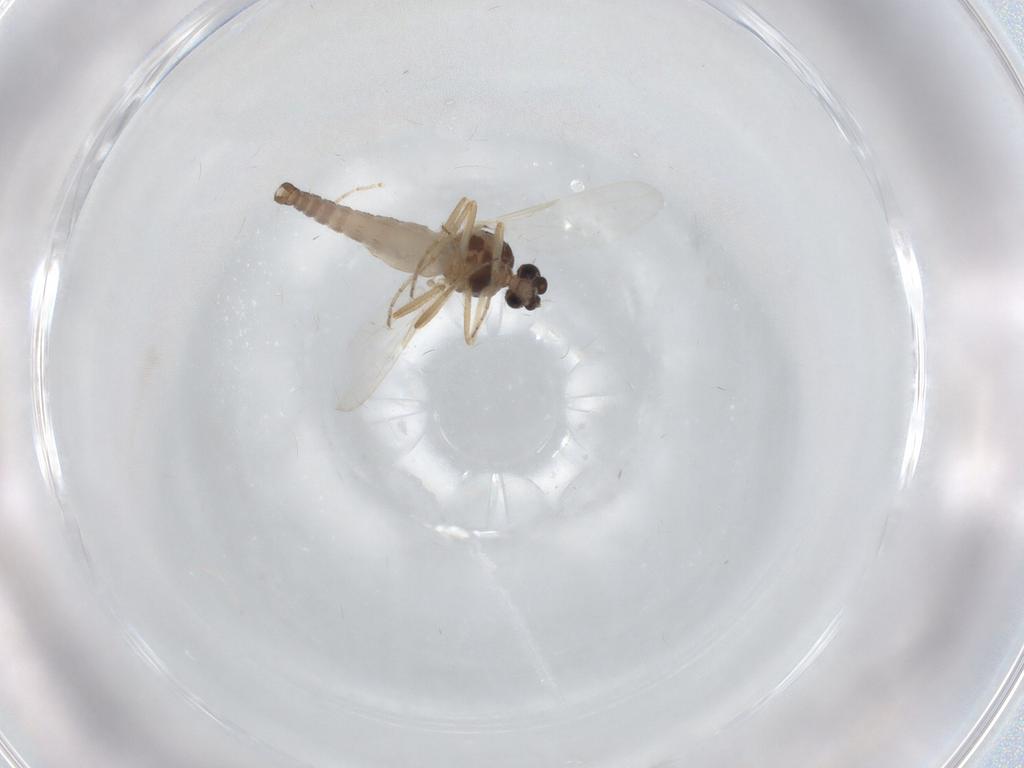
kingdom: Animalia
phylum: Arthropoda
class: Insecta
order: Diptera
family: Ceratopogonidae
